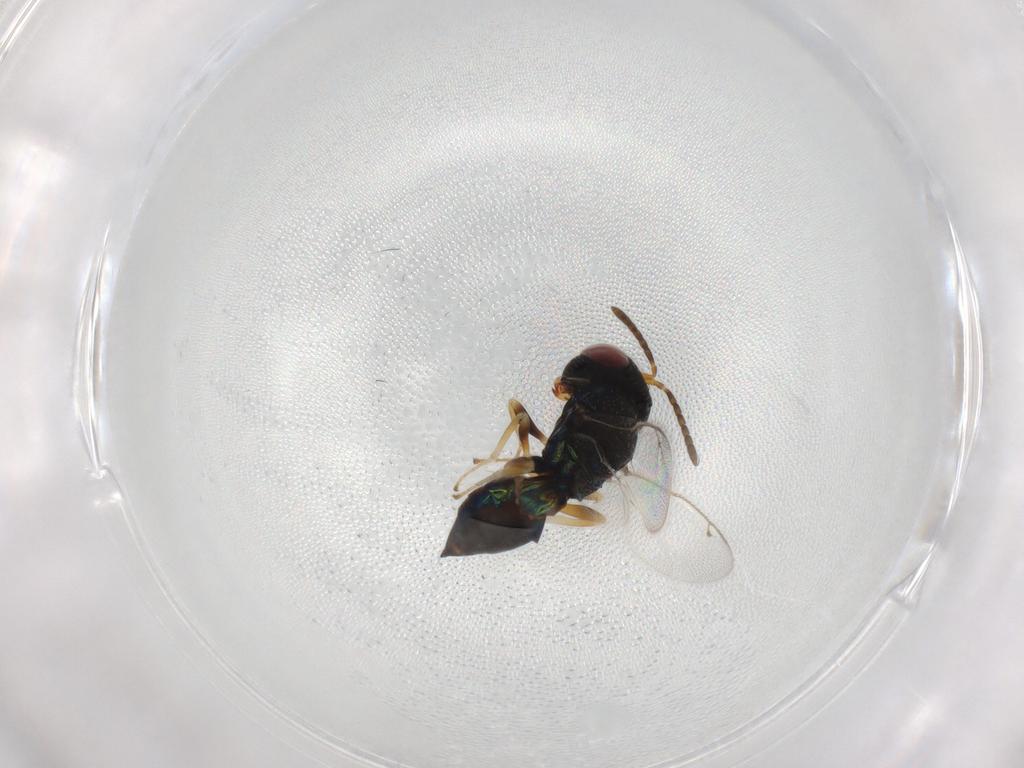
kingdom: Animalia
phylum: Arthropoda
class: Insecta
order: Hymenoptera
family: Eupelmidae
